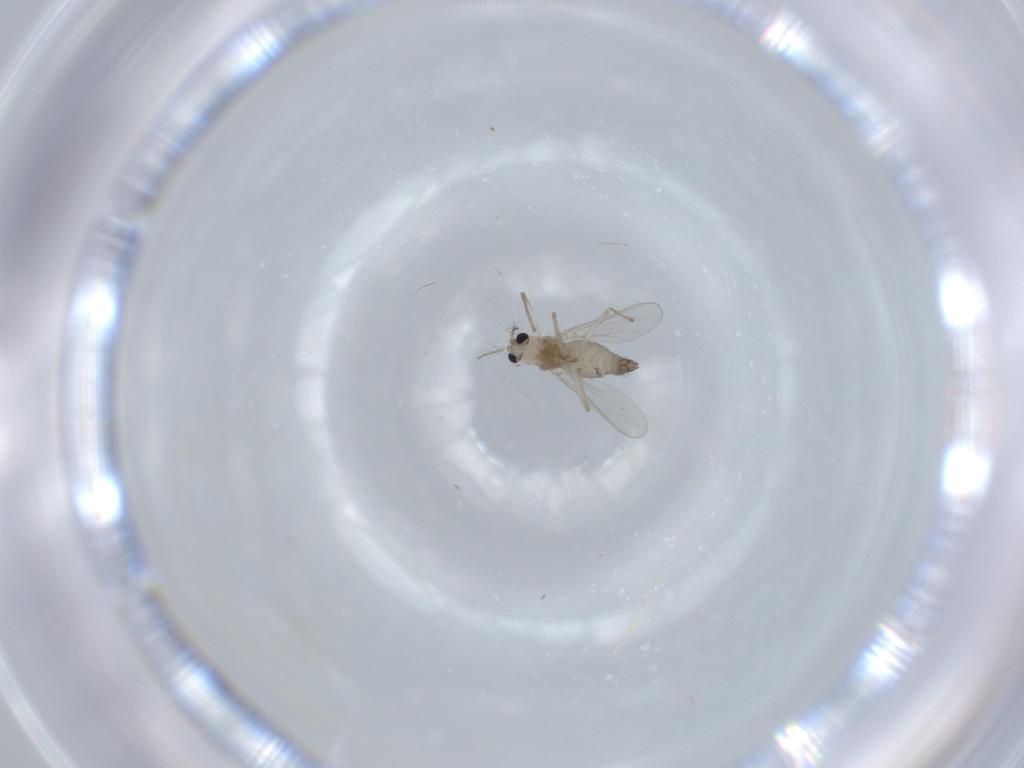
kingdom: Animalia
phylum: Arthropoda
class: Insecta
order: Diptera
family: Chironomidae
